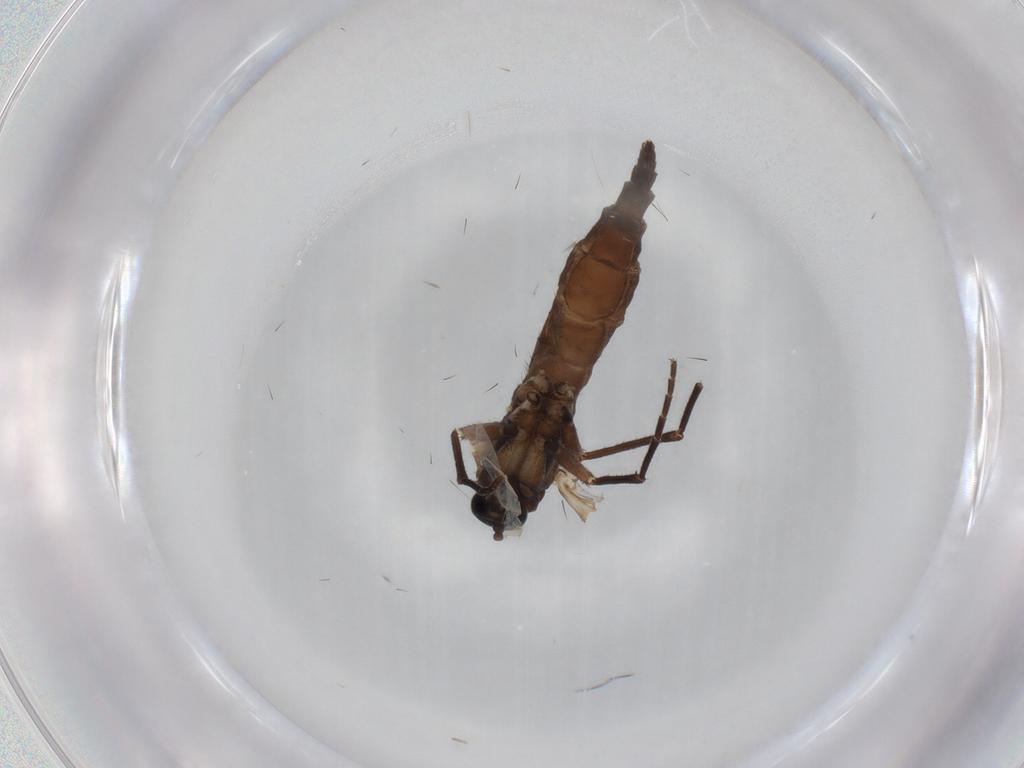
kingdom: Animalia
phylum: Arthropoda
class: Insecta
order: Diptera
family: Sciaridae
